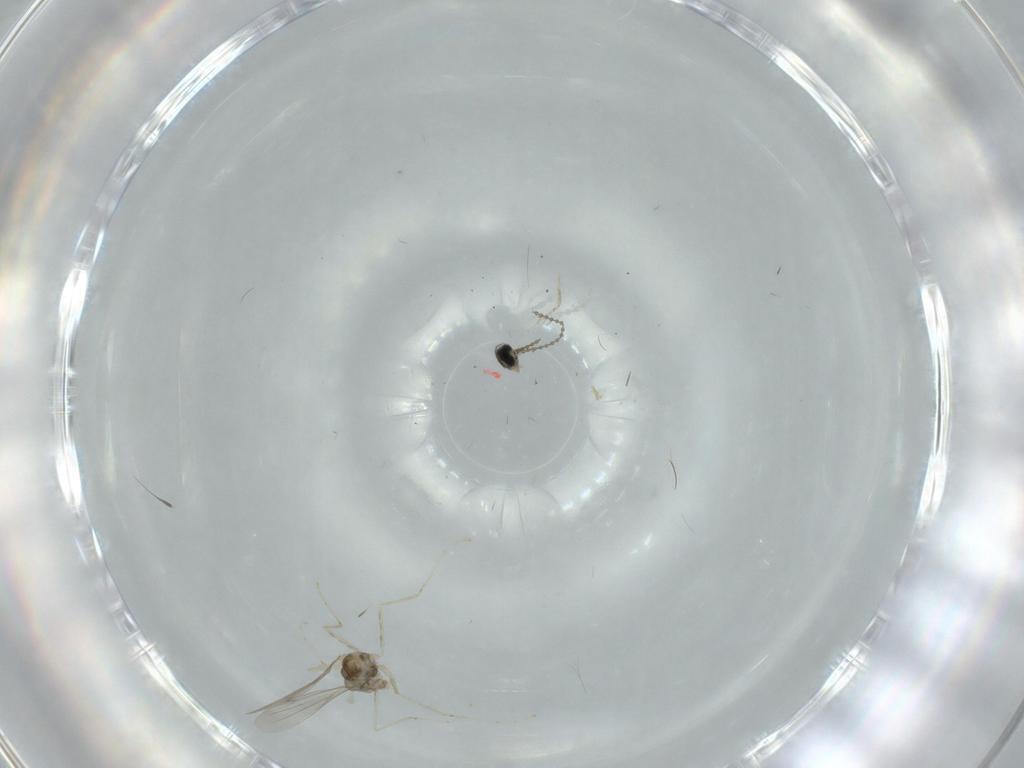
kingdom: Animalia
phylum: Arthropoda
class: Insecta
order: Diptera
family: Cecidomyiidae
